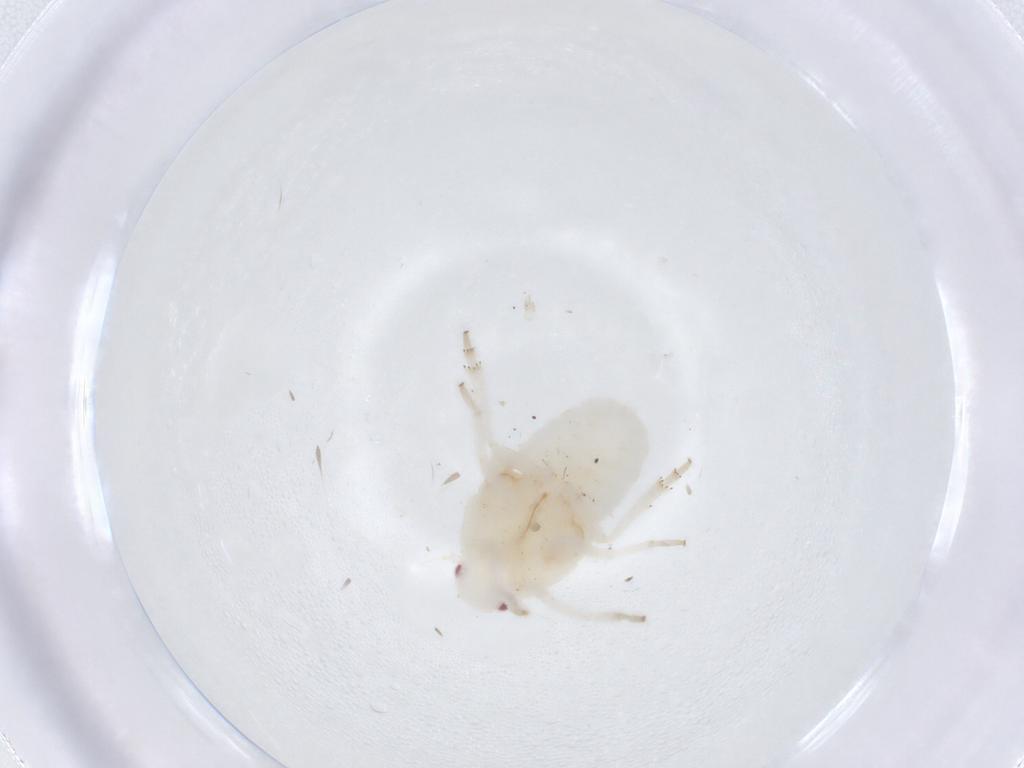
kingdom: Animalia
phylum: Arthropoda
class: Insecta
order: Hemiptera
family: Flatidae
